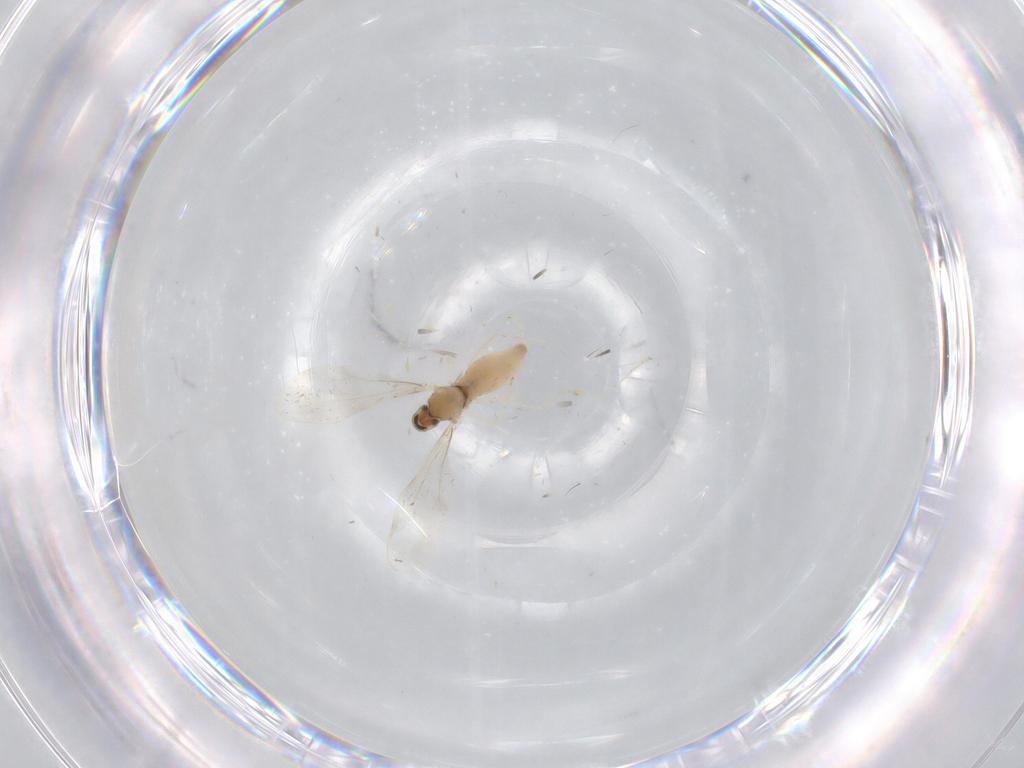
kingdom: Animalia
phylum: Arthropoda
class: Insecta
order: Diptera
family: Cecidomyiidae
